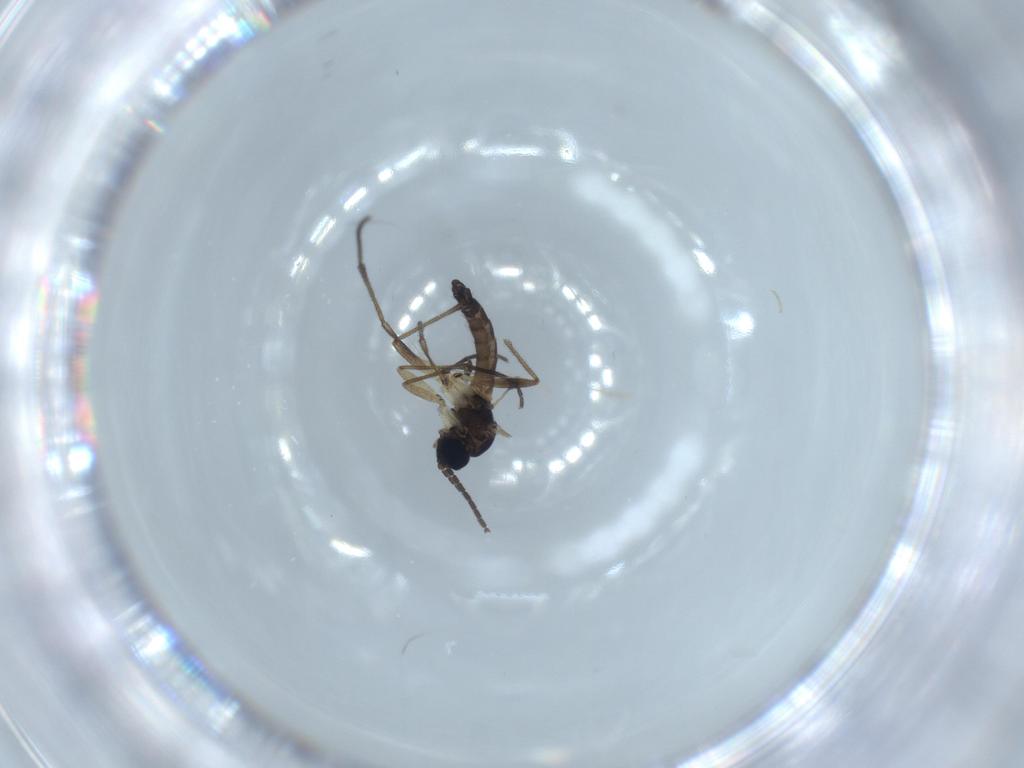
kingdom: Animalia
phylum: Arthropoda
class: Insecta
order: Diptera
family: Sciaridae
